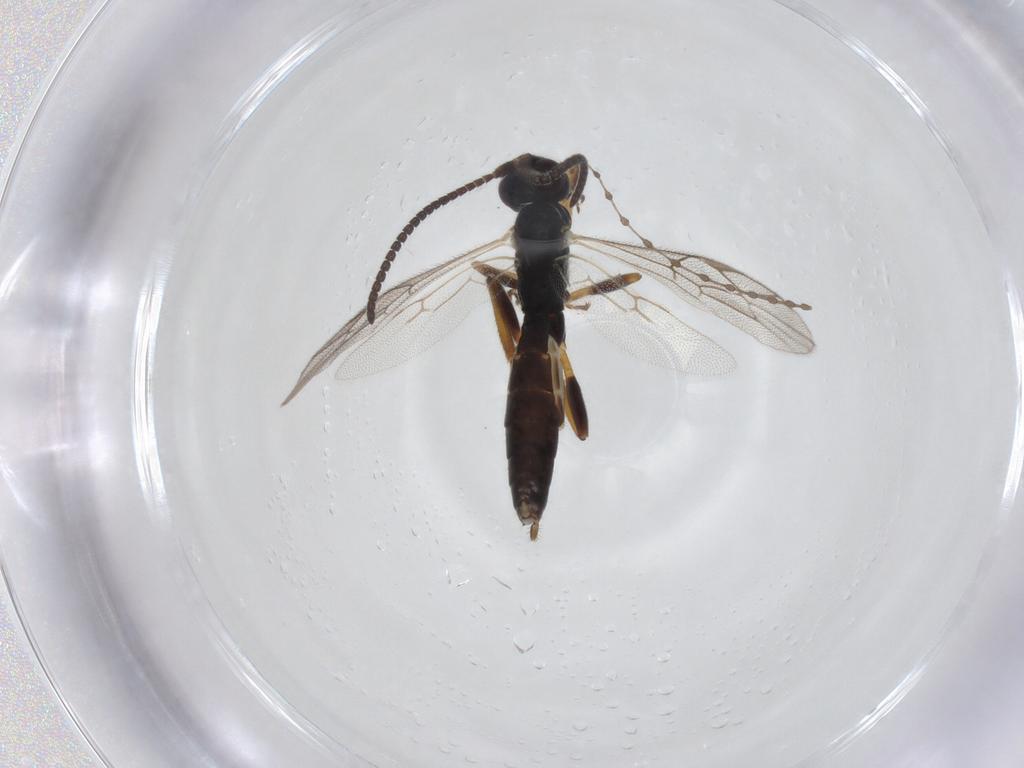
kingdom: Animalia
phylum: Arthropoda
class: Insecta
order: Hymenoptera
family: Ichneumonidae
